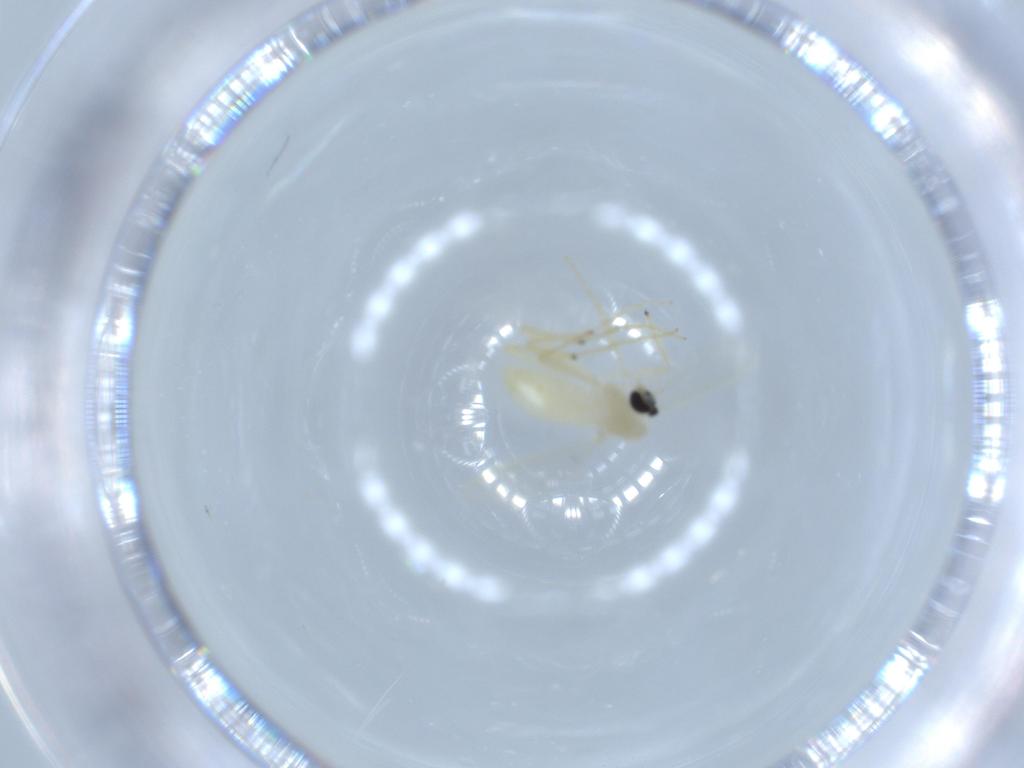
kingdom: Animalia
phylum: Arthropoda
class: Insecta
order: Diptera
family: Chironomidae
